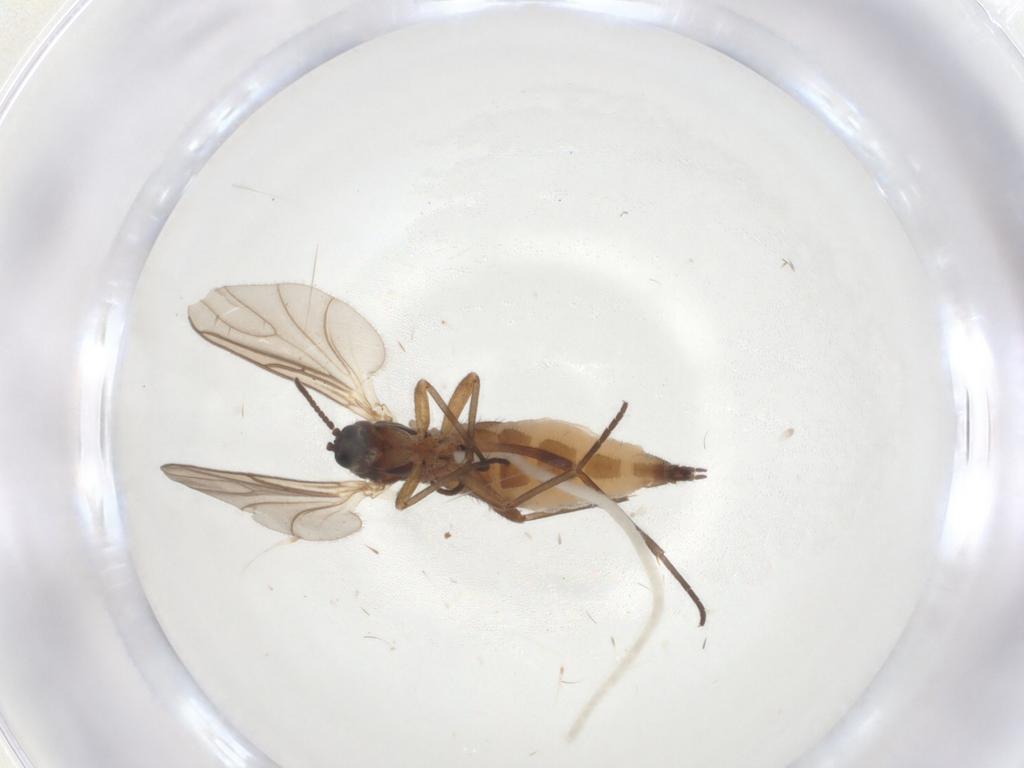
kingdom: Animalia
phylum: Arthropoda
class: Insecta
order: Diptera
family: Sciaridae
